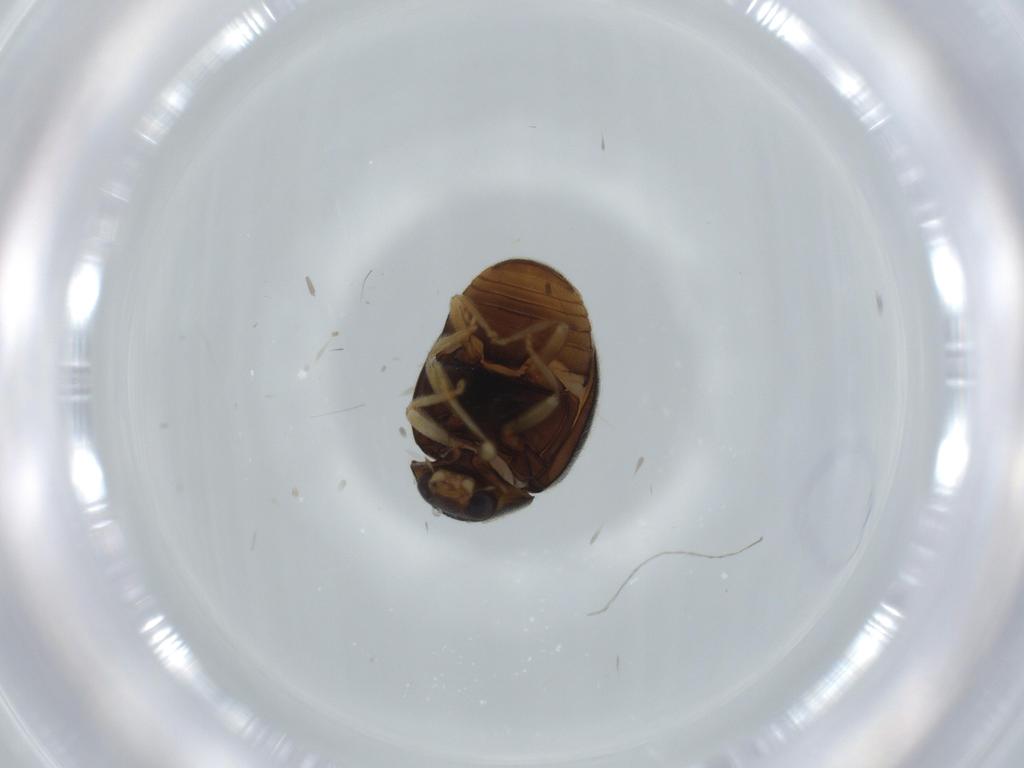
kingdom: Animalia
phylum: Arthropoda
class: Insecta
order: Coleoptera
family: Coccinellidae
